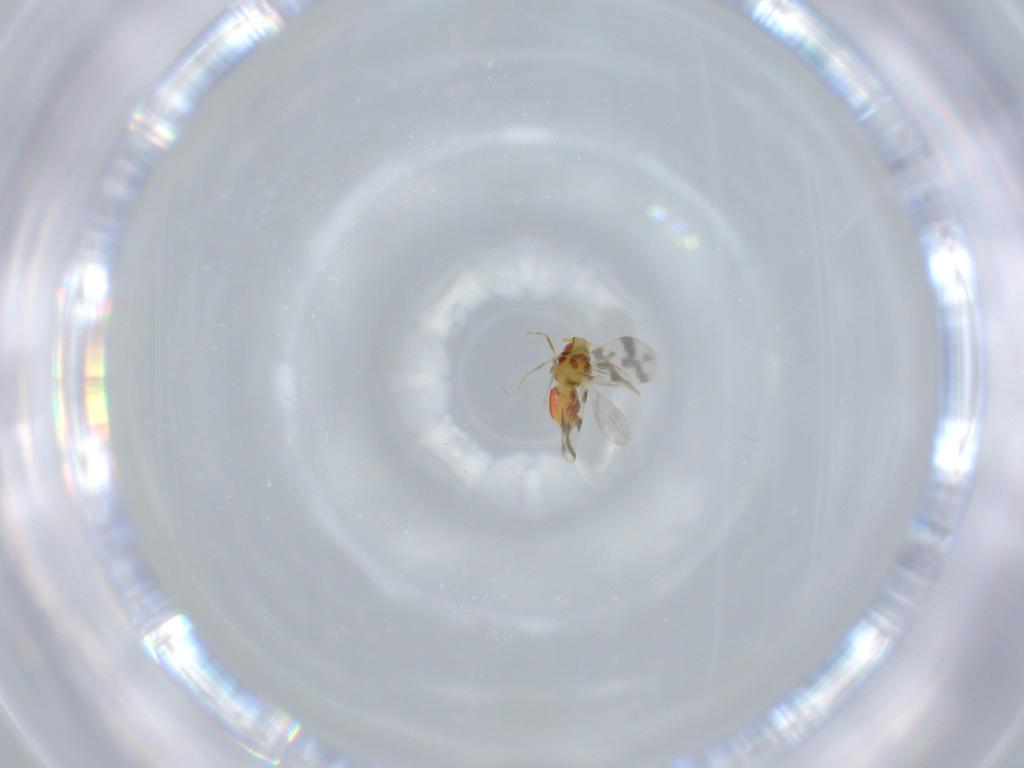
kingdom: Animalia
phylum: Arthropoda
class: Insecta
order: Hemiptera
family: Aleyrodidae
